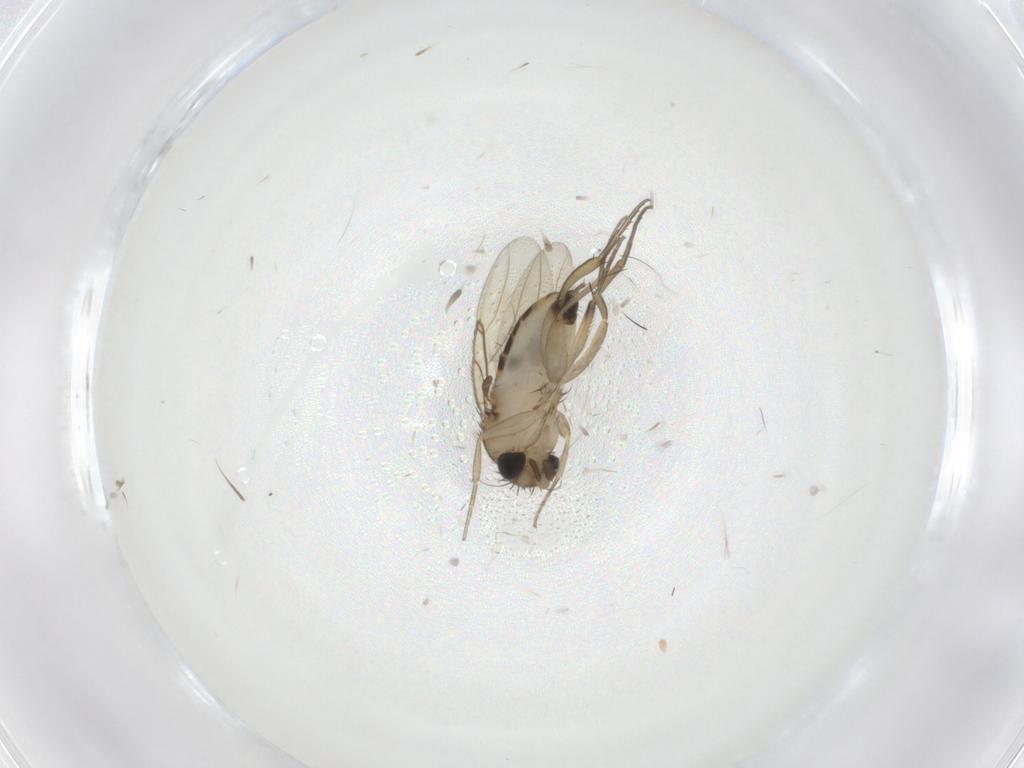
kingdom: Animalia
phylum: Arthropoda
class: Insecta
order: Diptera
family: Phoridae
